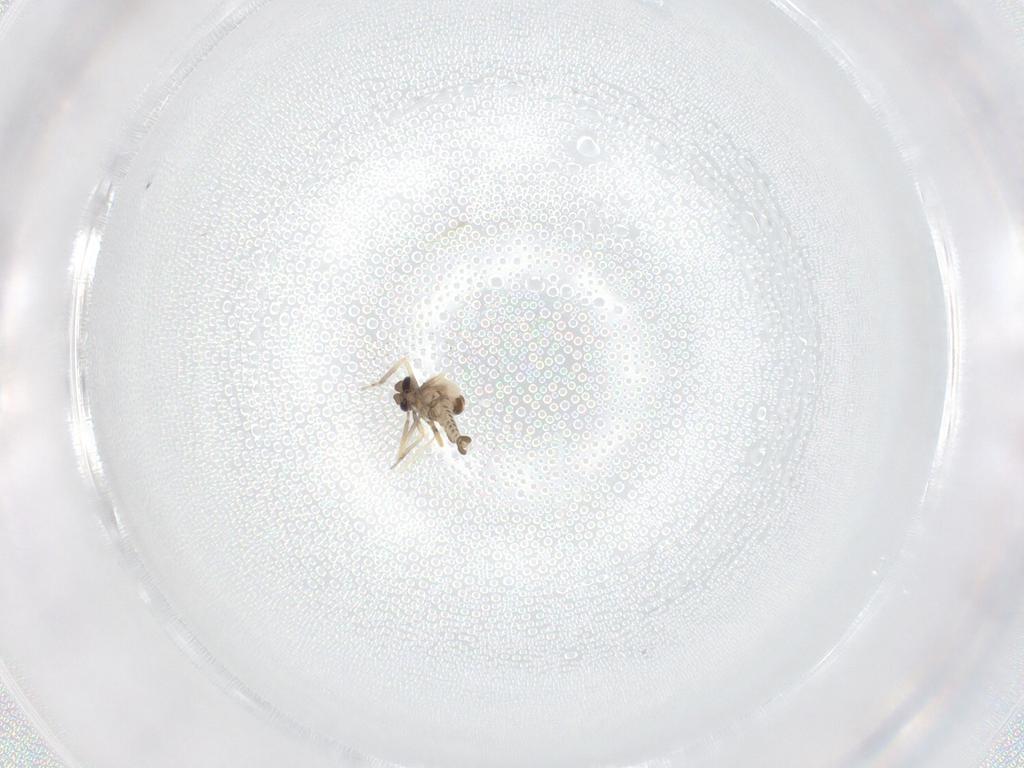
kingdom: Animalia
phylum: Arthropoda
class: Insecta
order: Diptera
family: Ceratopogonidae
